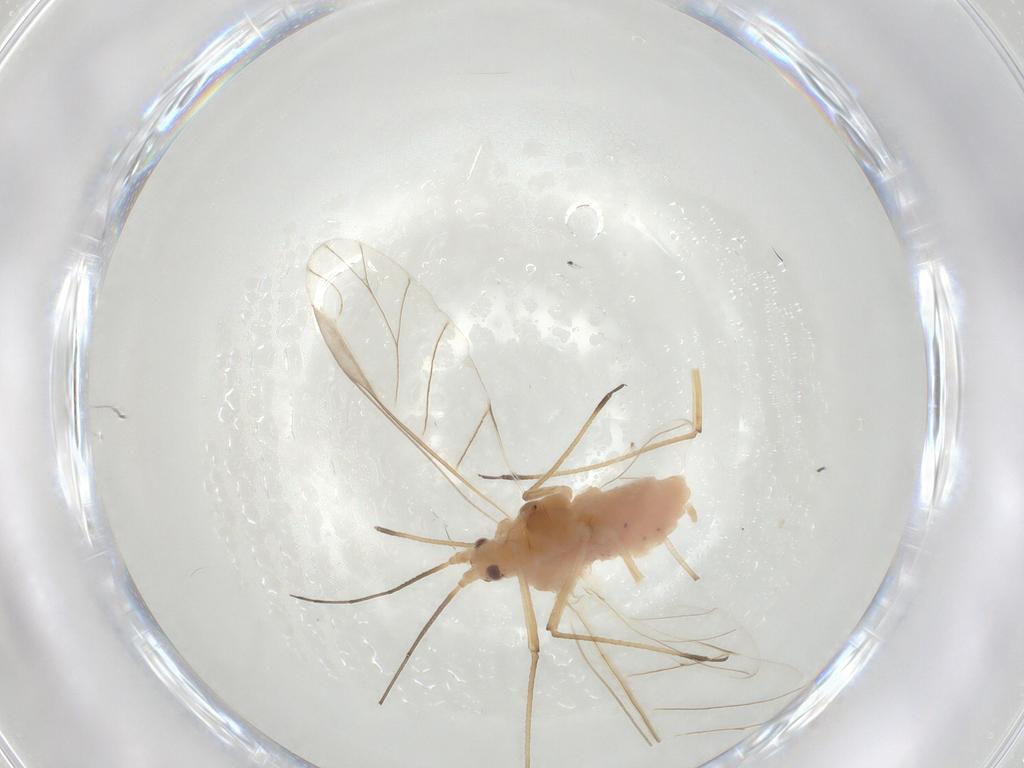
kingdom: Animalia
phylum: Arthropoda
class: Insecta
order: Hemiptera
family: Aphididae
